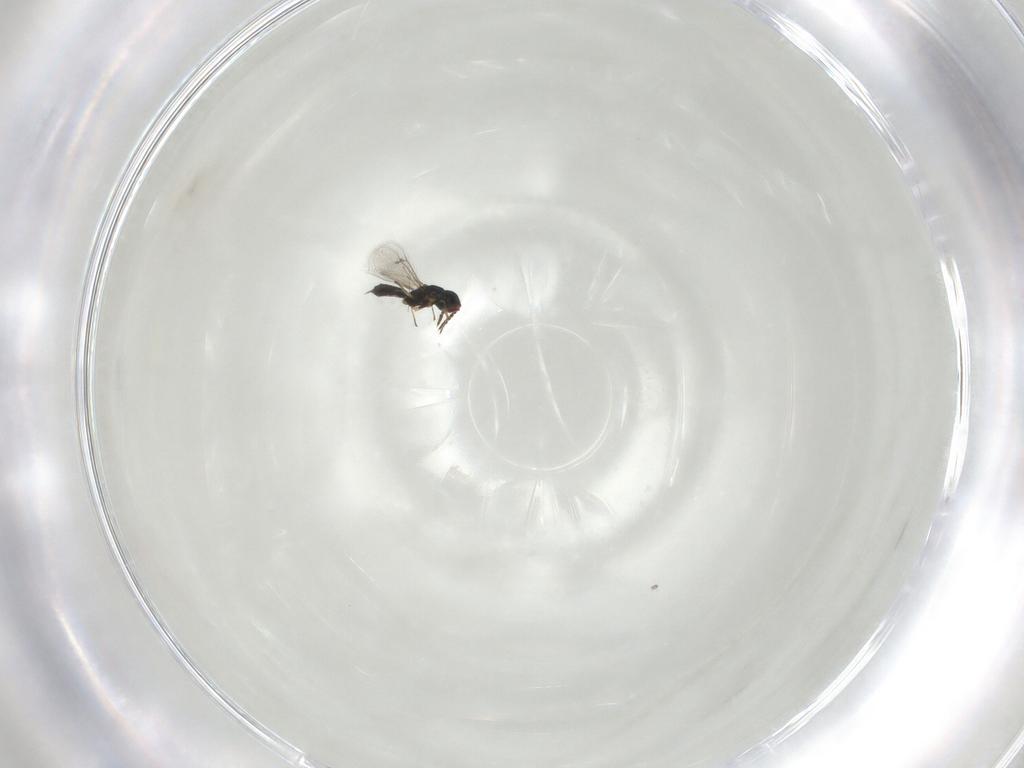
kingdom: Animalia
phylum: Arthropoda
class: Insecta
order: Hymenoptera
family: Eulophidae
